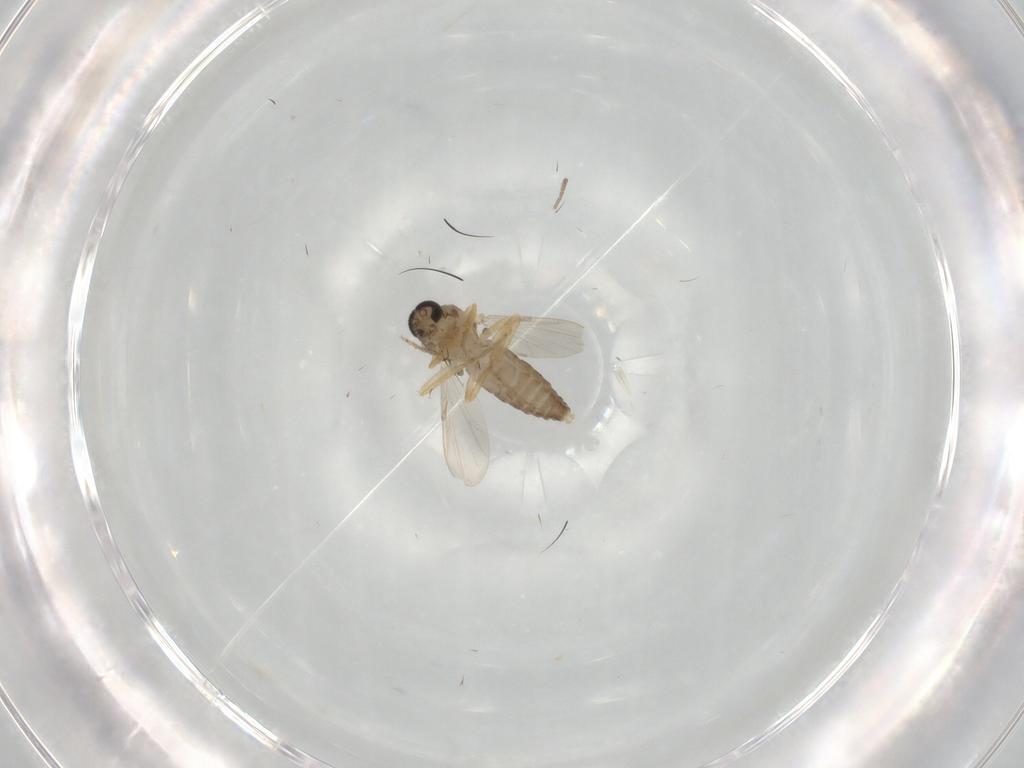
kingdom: Animalia
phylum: Arthropoda
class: Insecta
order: Diptera
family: Ceratopogonidae
